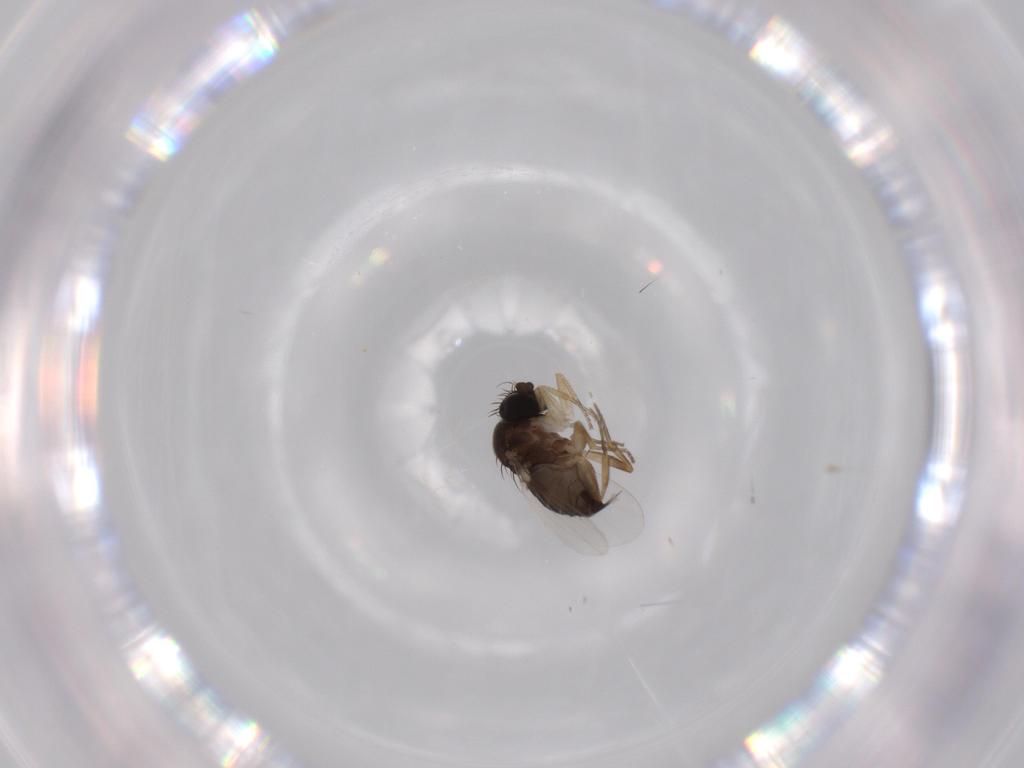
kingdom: Animalia
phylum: Arthropoda
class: Insecta
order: Diptera
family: Phoridae
